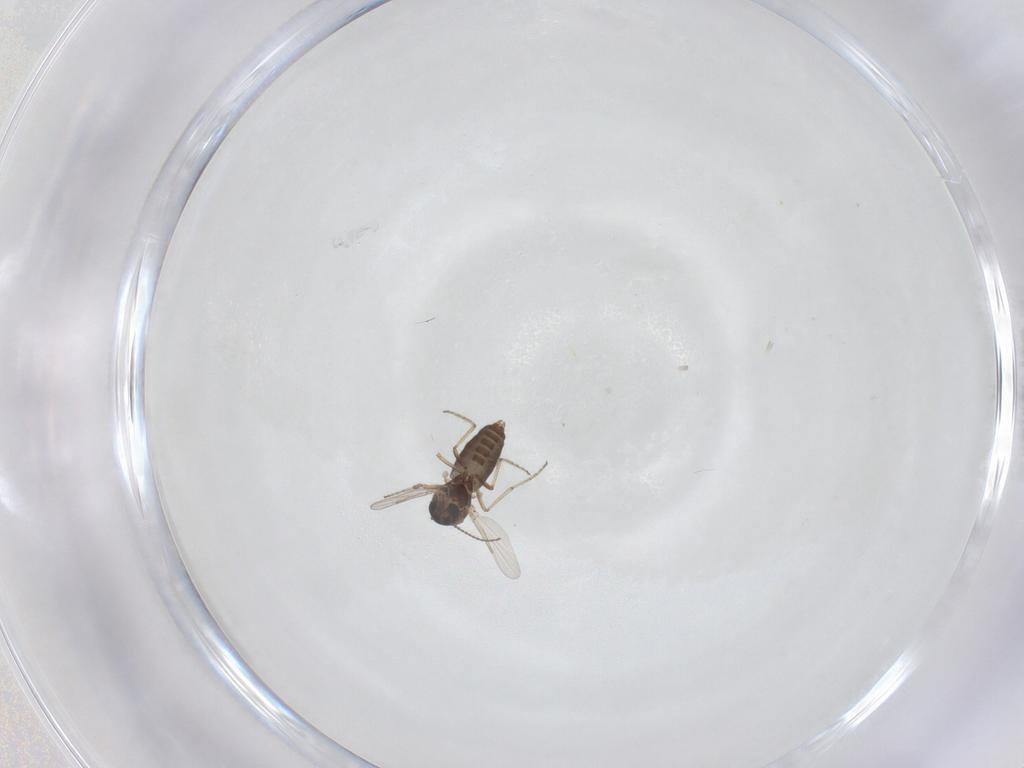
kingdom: Animalia
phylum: Arthropoda
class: Insecta
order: Diptera
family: Ceratopogonidae
